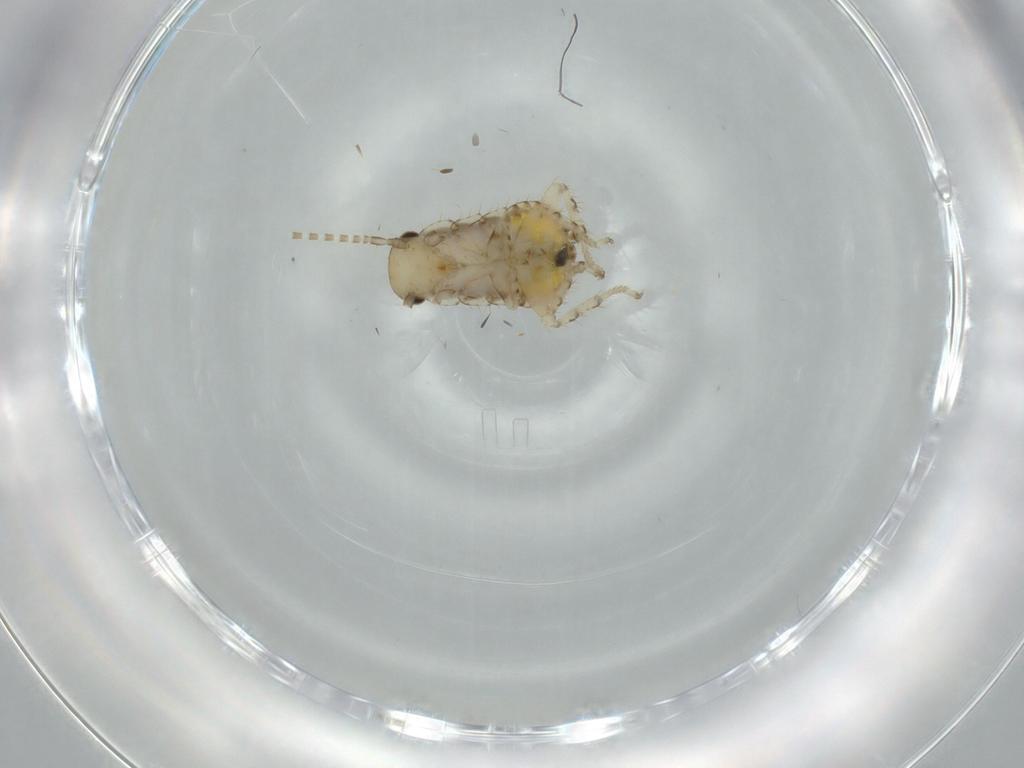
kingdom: Animalia
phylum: Arthropoda
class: Insecta
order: Blattodea
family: Ectobiidae
